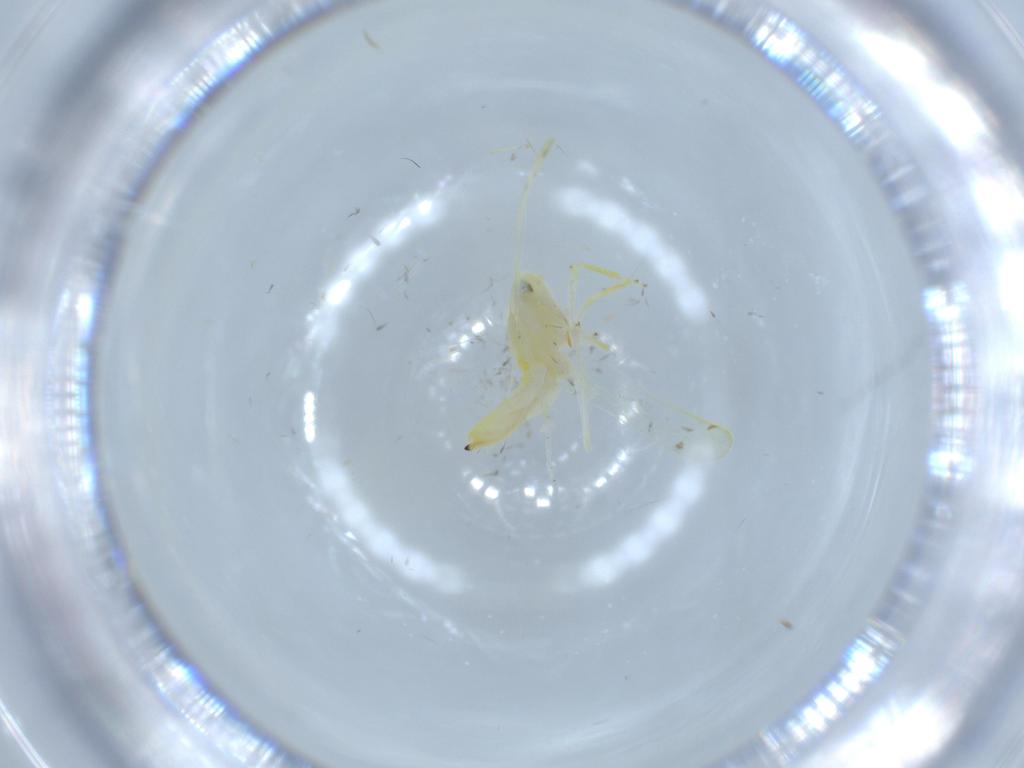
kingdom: Animalia
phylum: Arthropoda
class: Insecta
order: Hemiptera
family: Cicadellidae
